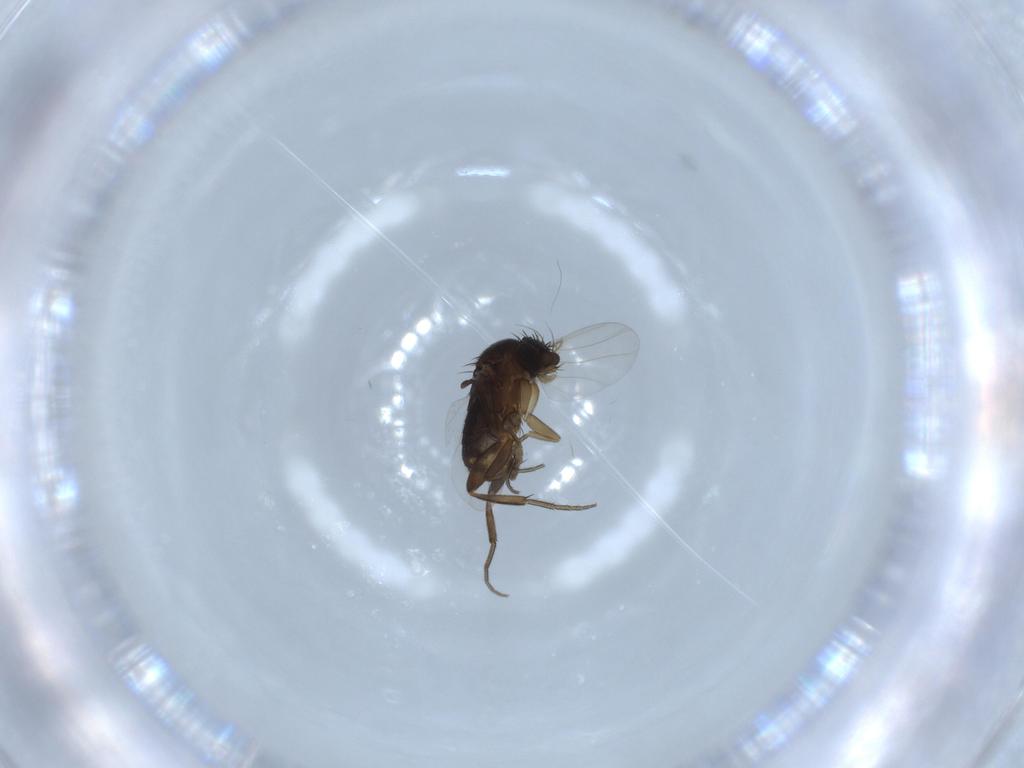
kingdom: Animalia
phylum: Arthropoda
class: Insecta
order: Diptera
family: Phoridae
